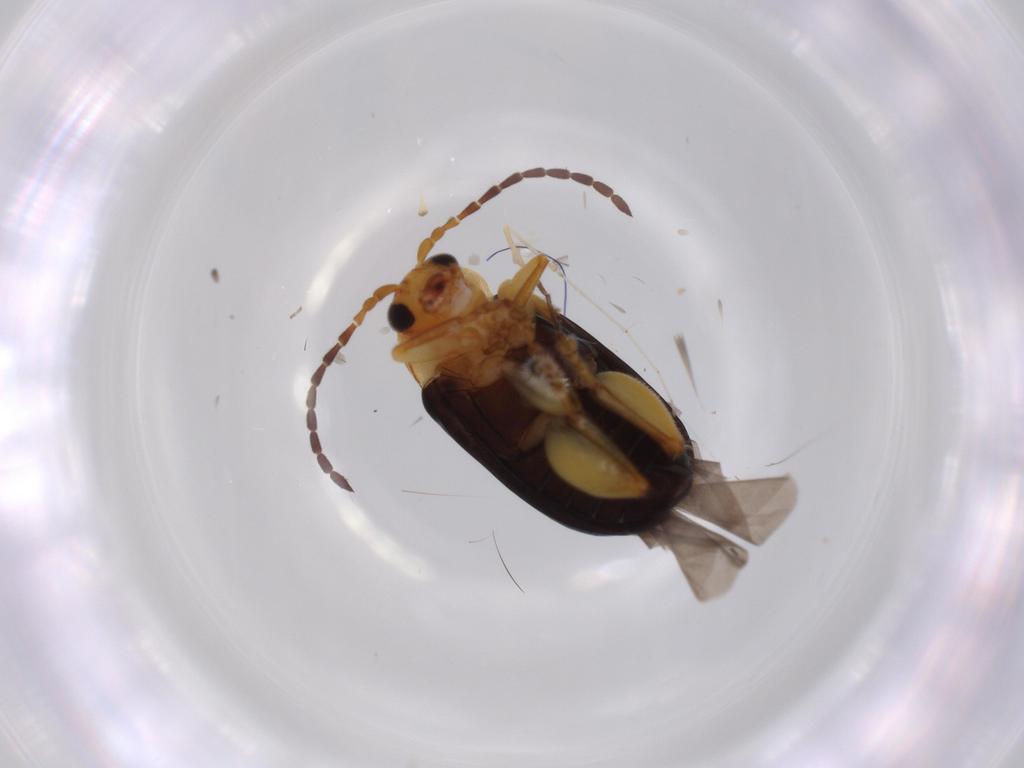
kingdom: Animalia
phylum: Arthropoda
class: Insecta
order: Coleoptera
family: Chrysomelidae
